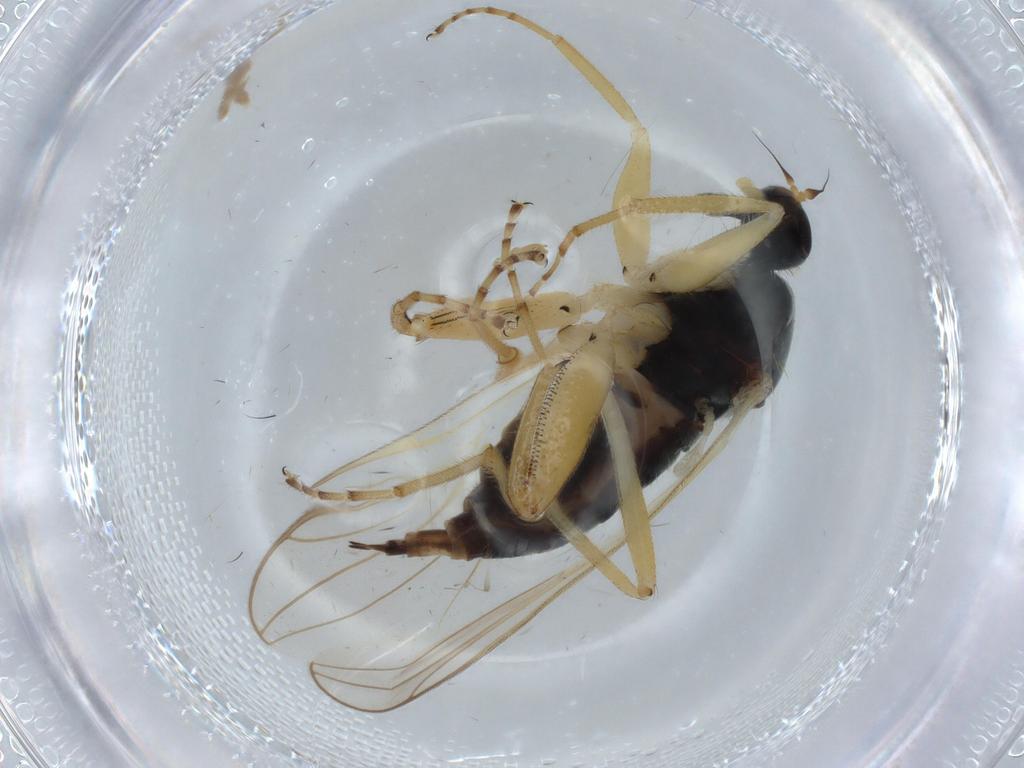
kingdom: Animalia
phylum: Arthropoda
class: Insecta
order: Diptera
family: Hybotidae
